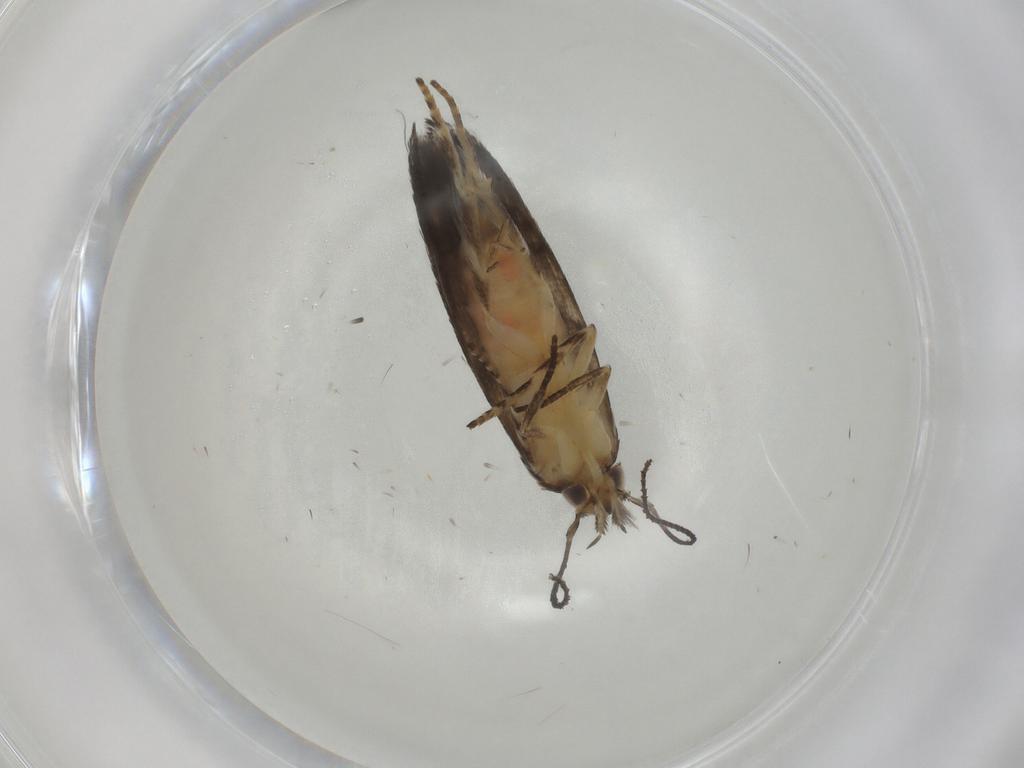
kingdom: Animalia
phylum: Arthropoda
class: Insecta
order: Lepidoptera
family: Elachistidae
